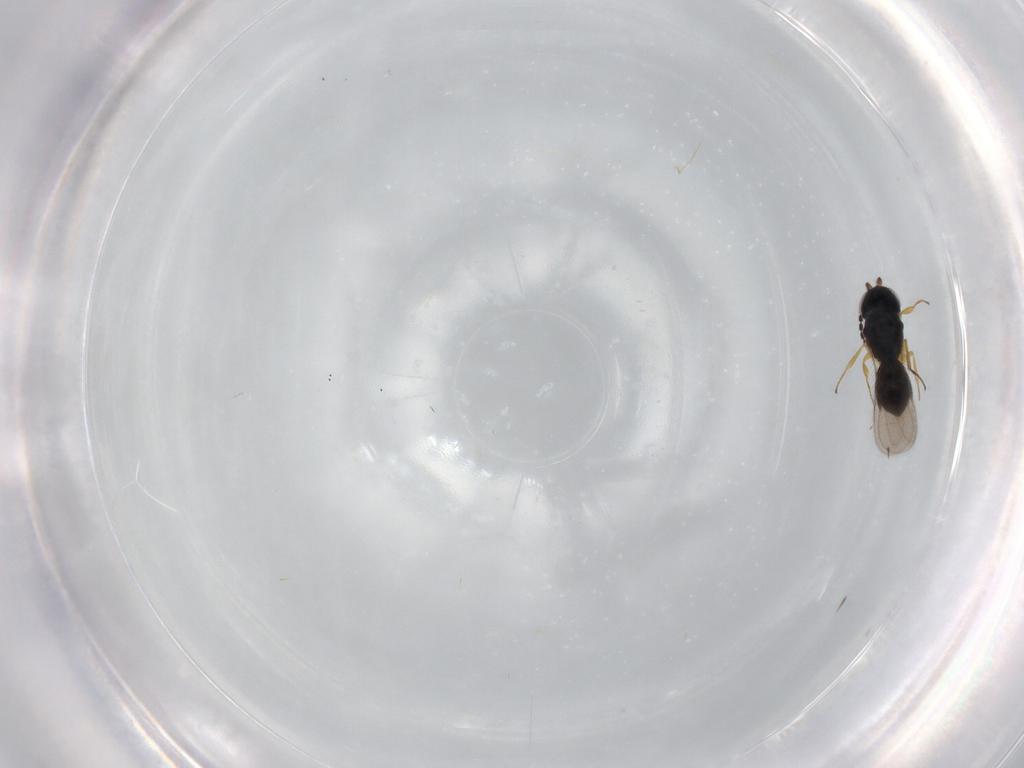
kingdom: Animalia
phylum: Arthropoda
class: Insecta
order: Hymenoptera
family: Scelionidae
